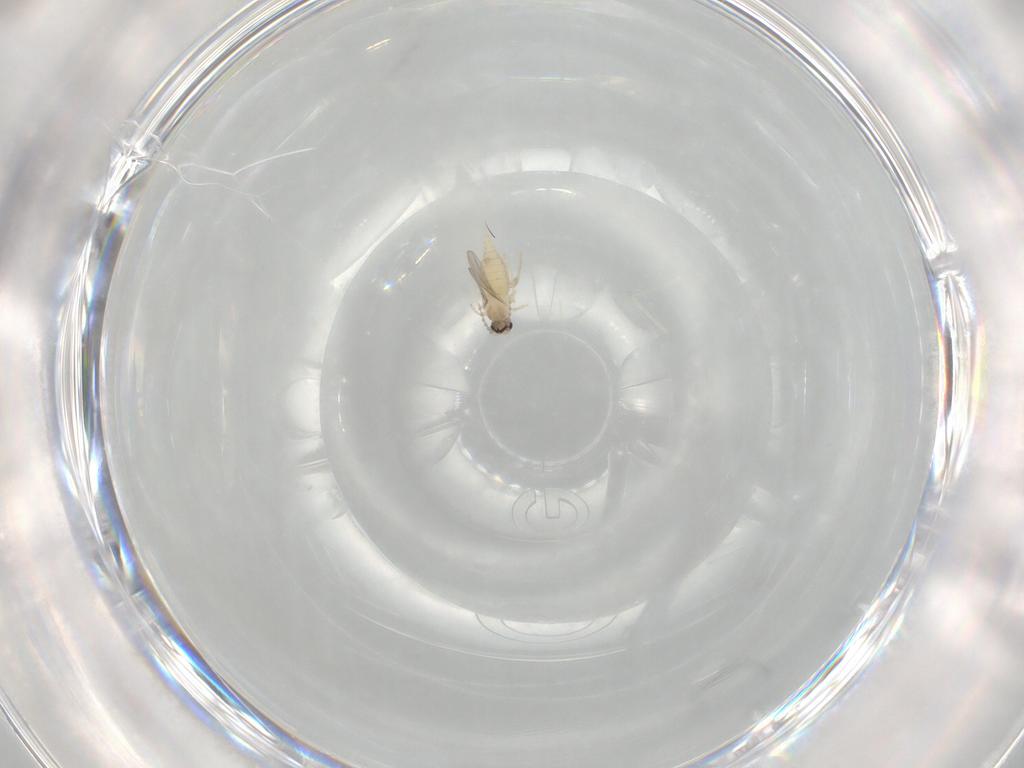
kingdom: Animalia
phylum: Arthropoda
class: Insecta
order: Diptera
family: Cecidomyiidae
